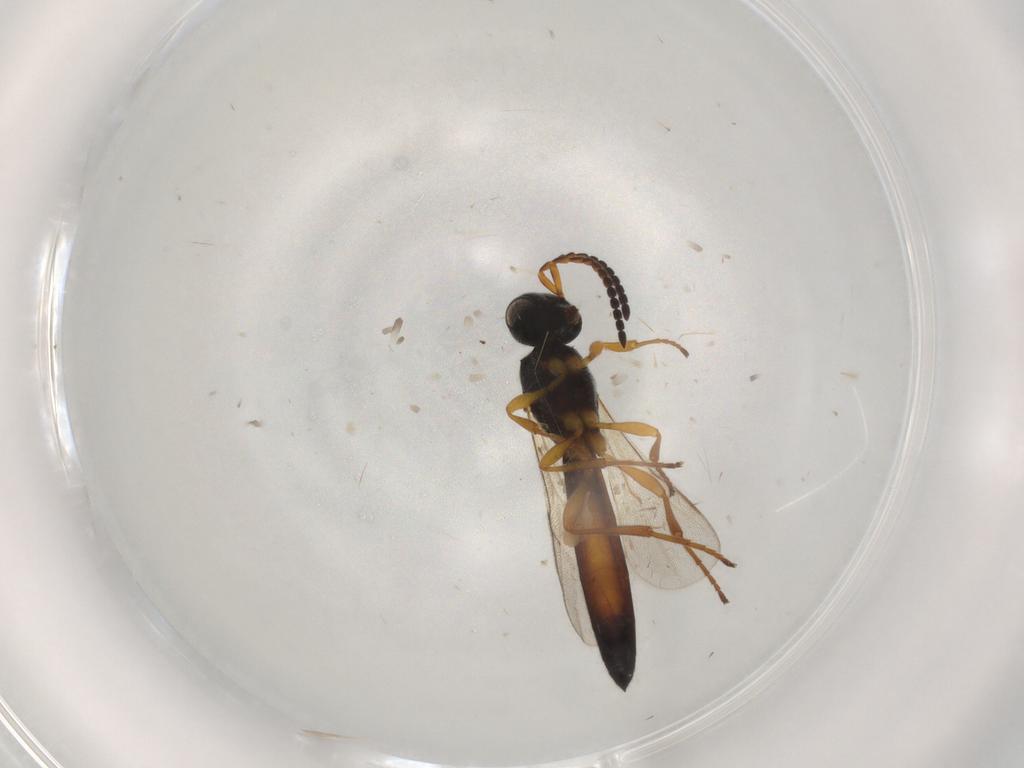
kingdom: Animalia
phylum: Arthropoda
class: Insecta
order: Hymenoptera
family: Scelionidae
